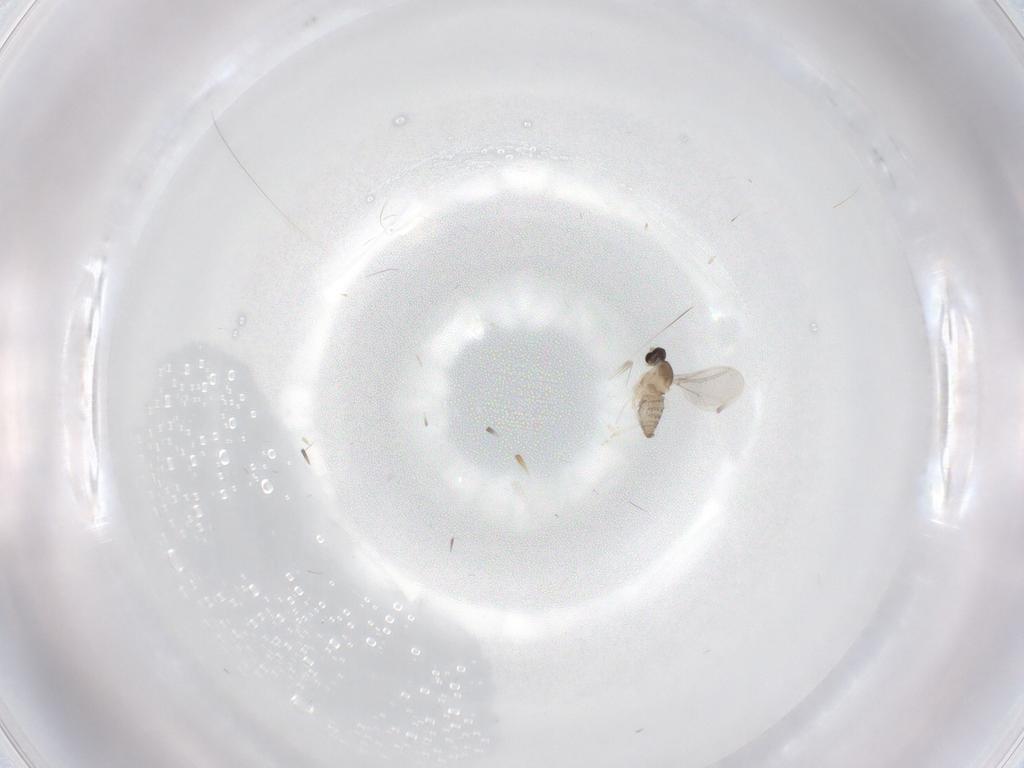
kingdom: Animalia
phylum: Arthropoda
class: Insecta
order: Diptera
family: Cecidomyiidae
